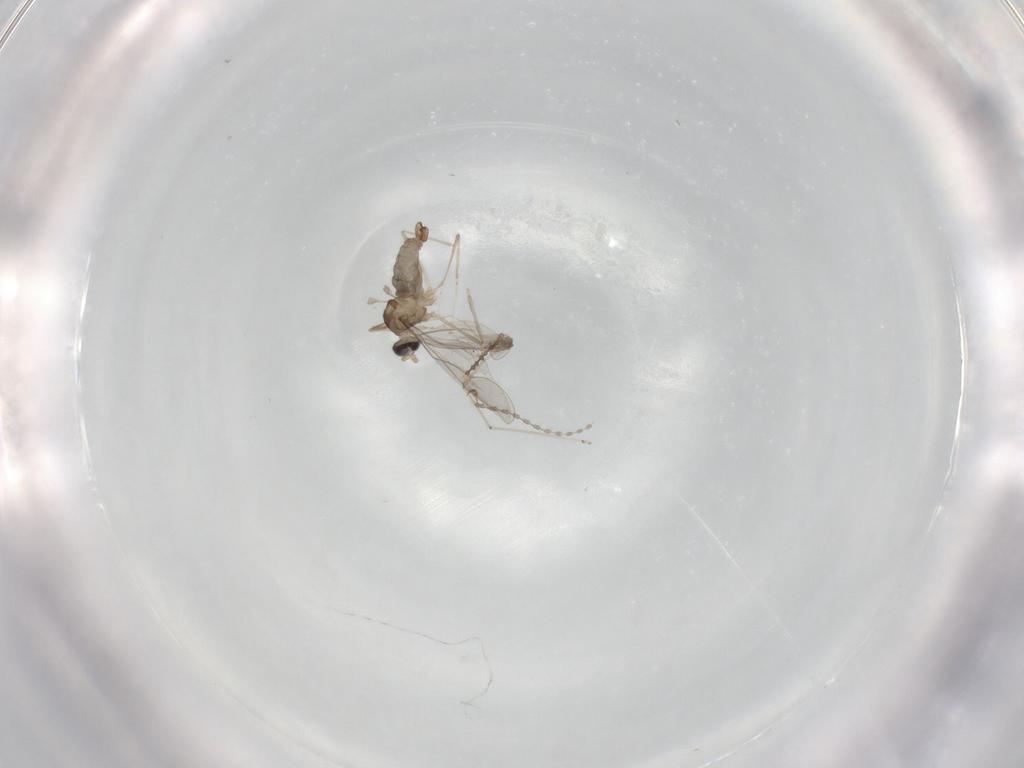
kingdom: Animalia
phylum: Arthropoda
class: Insecta
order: Diptera
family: Cecidomyiidae
